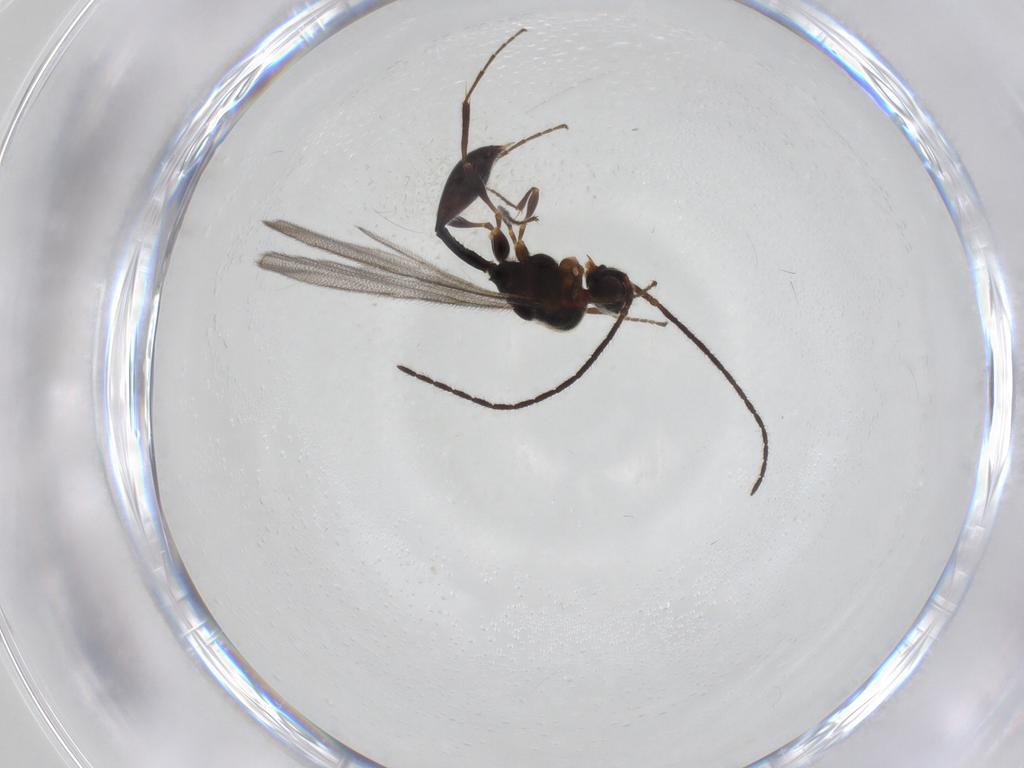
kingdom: Animalia
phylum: Arthropoda
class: Insecta
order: Hymenoptera
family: Diapriidae
